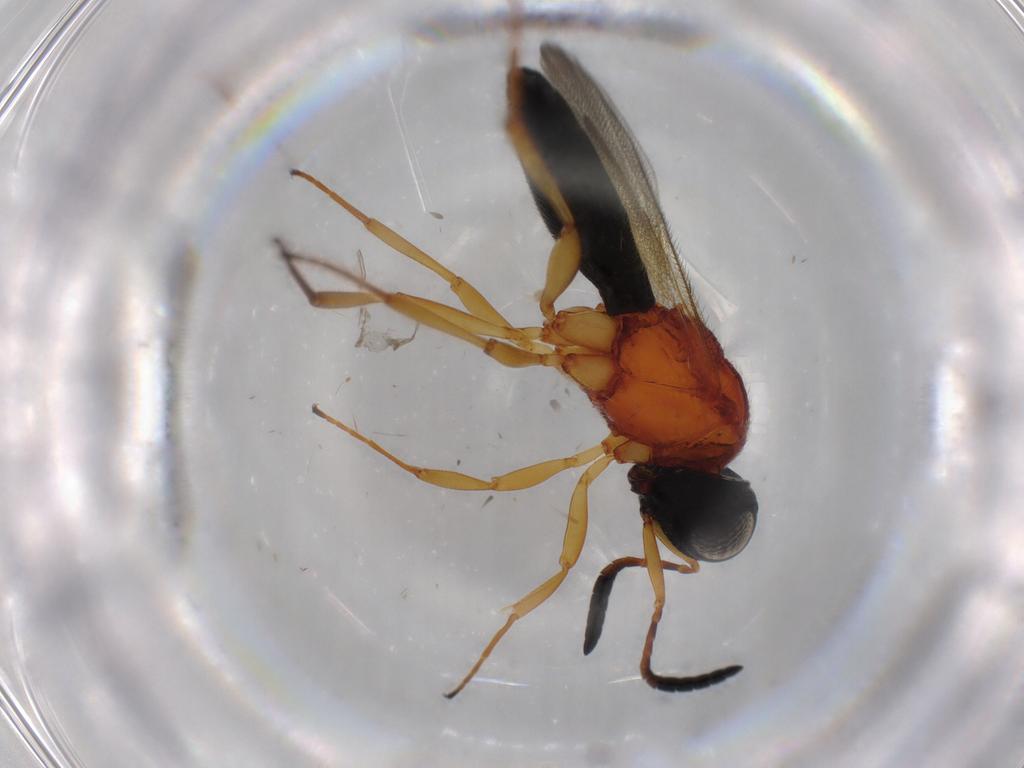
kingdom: Animalia
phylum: Arthropoda
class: Insecta
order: Hymenoptera
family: Scelionidae
